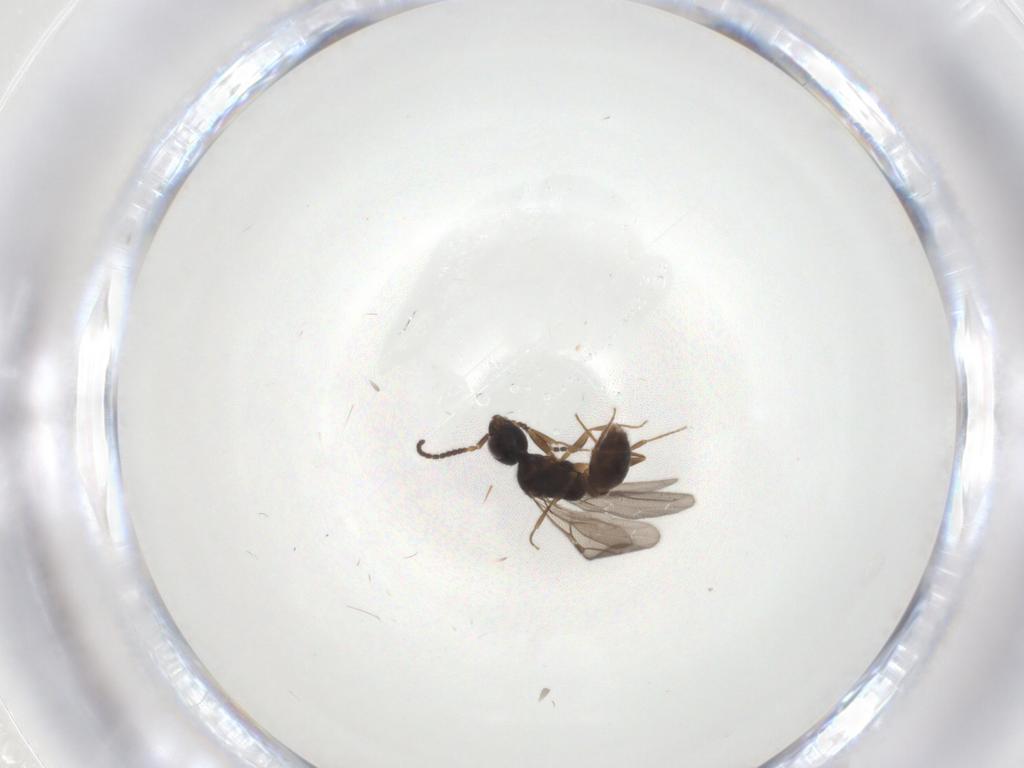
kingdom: Animalia
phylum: Arthropoda
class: Insecta
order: Hymenoptera
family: Bethylidae
